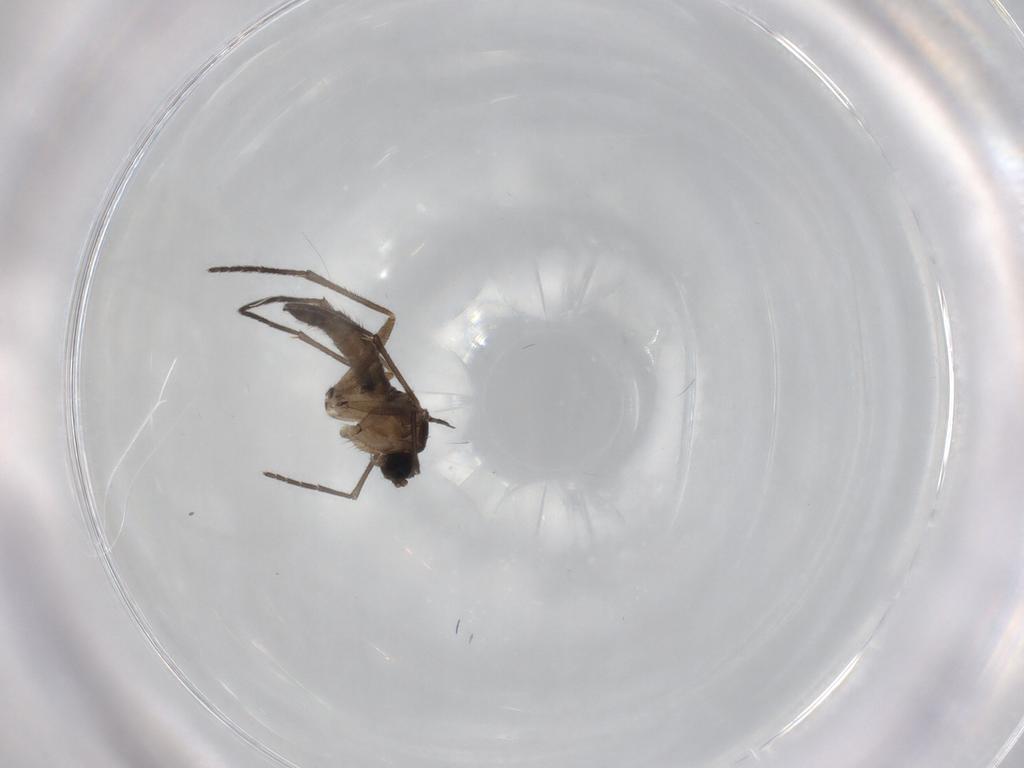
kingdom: Animalia
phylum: Arthropoda
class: Insecta
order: Diptera
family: Sciaridae
